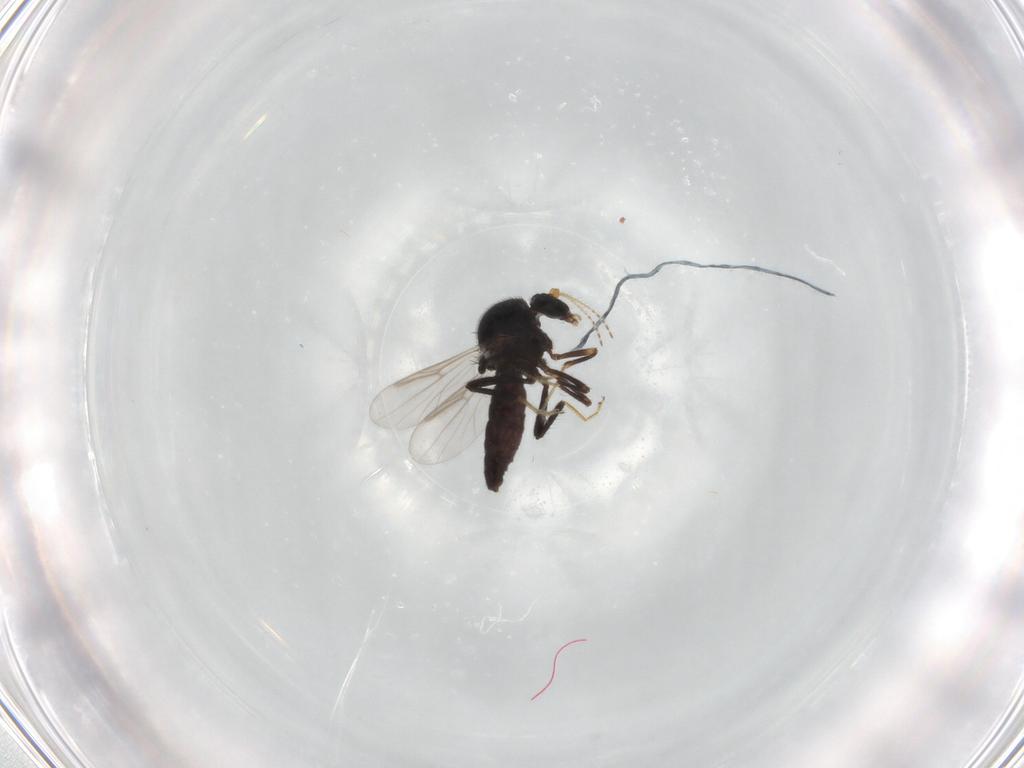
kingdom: Animalia
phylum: Arthropoda
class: Insecta
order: Diptera
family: Ceratopogonidae
